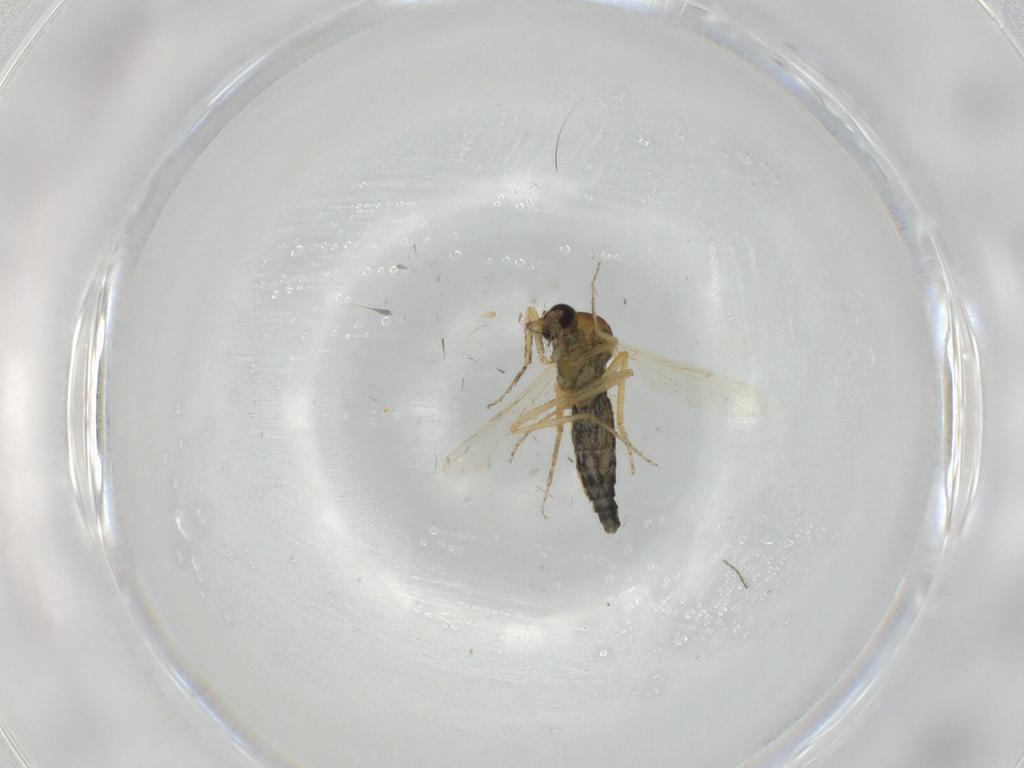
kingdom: Animalia
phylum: Arthropoda
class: Insecta
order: Diptera
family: Ceratopogonidae
